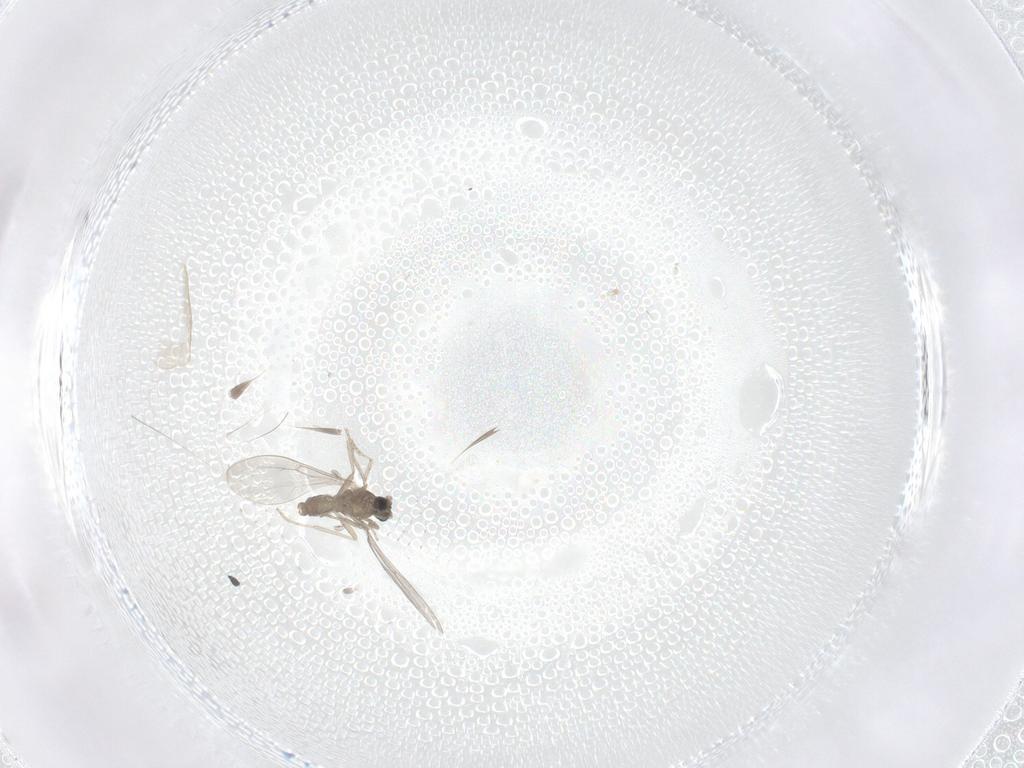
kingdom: Animalia
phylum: Arthropoda
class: Insecta
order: Diptera
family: Cecidomyiidae
